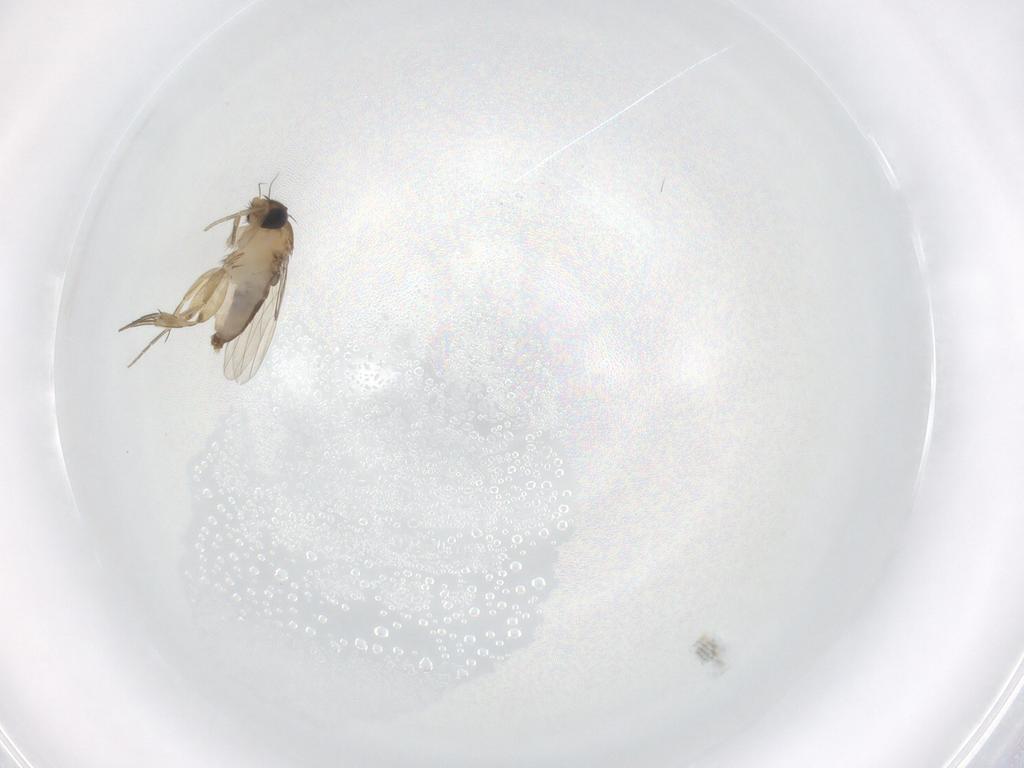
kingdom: Animalia
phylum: Arthropoda
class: Insecta
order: Diptera
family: Phoridae
